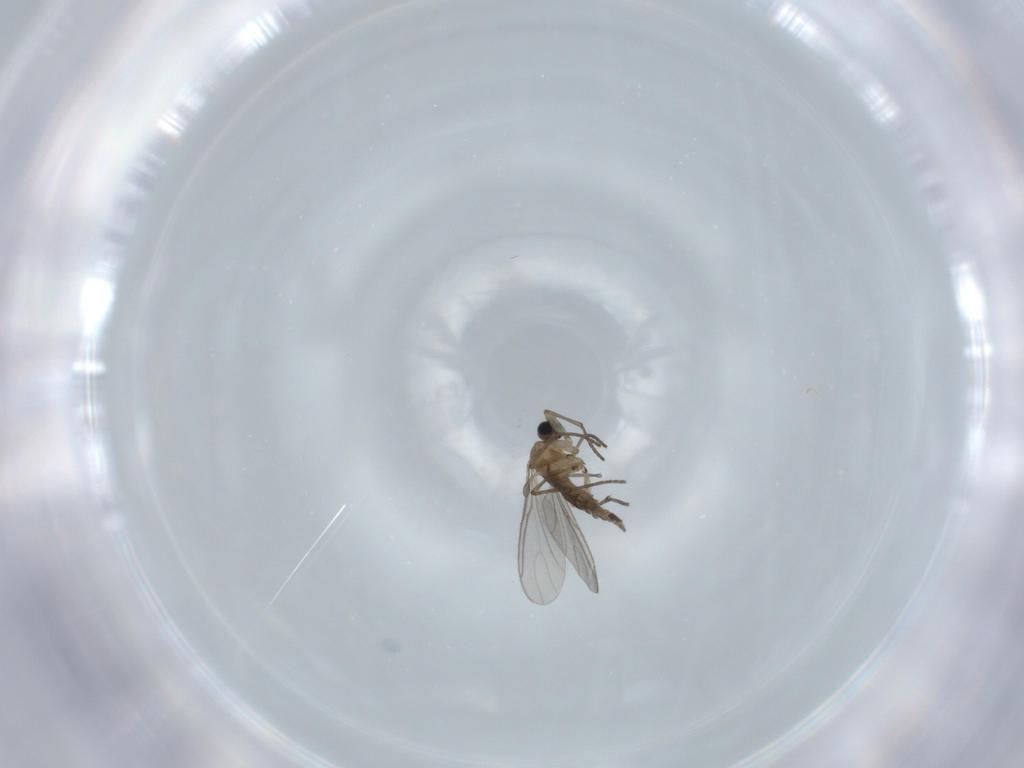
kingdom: Animalia
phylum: Arthropoda
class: Insecta
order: Diptera
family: Sciaridae
